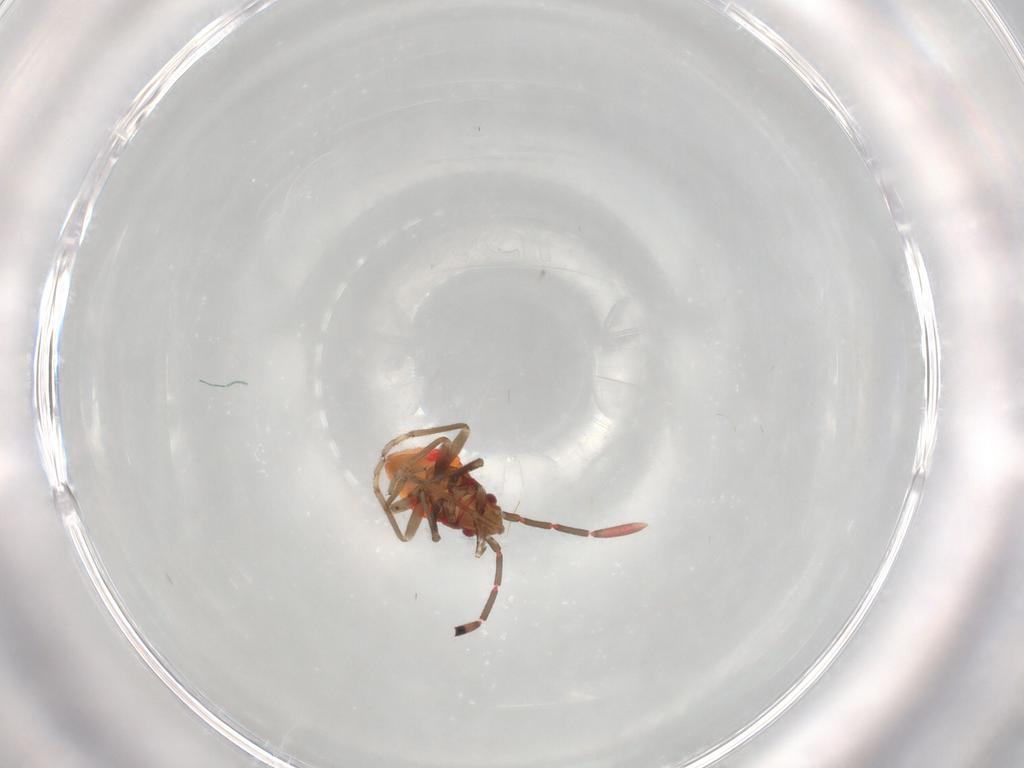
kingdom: Animalia
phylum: Arthropoda
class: Insecta
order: Hemiptera
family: Rhyparochromidae
